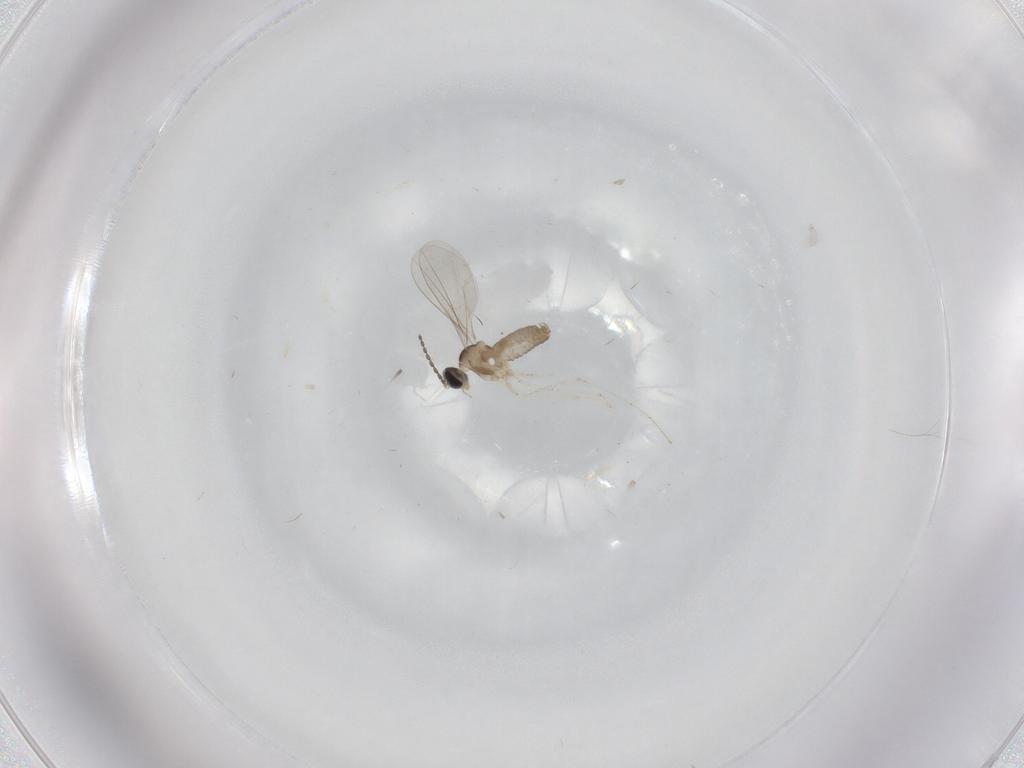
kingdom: Animalia
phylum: Arthropoda
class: Insecta
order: Diptera
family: Cecidomyiidae
